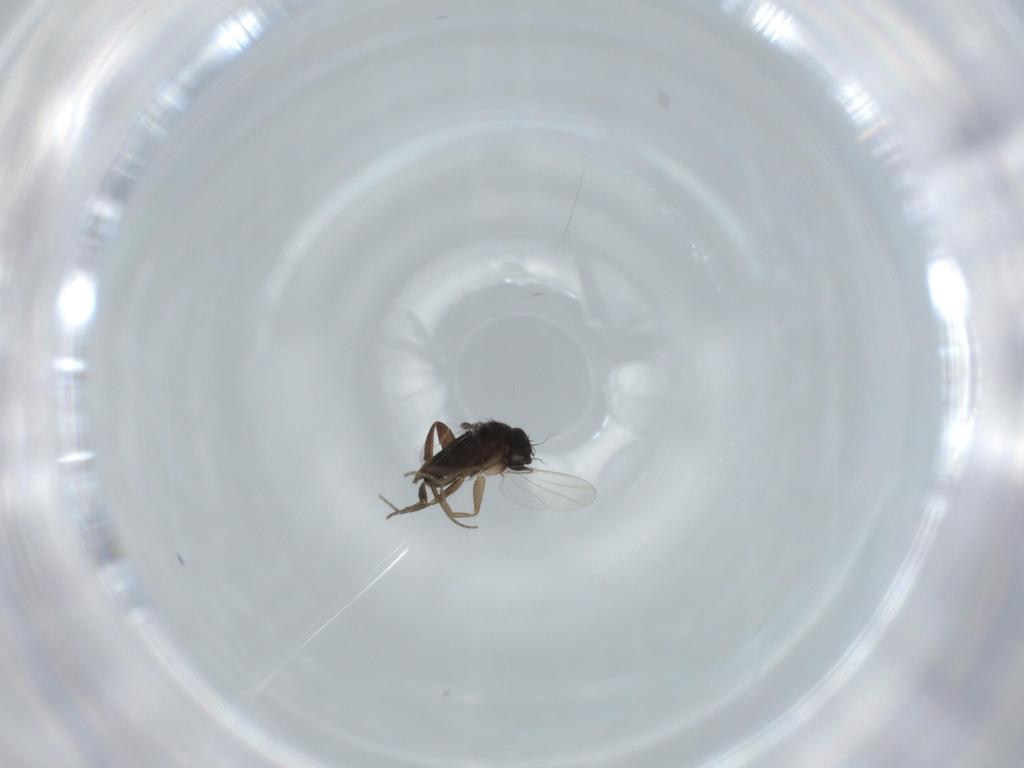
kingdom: Animalia
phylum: Arthropoda
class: Insecta
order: Diptera
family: Phoridae
